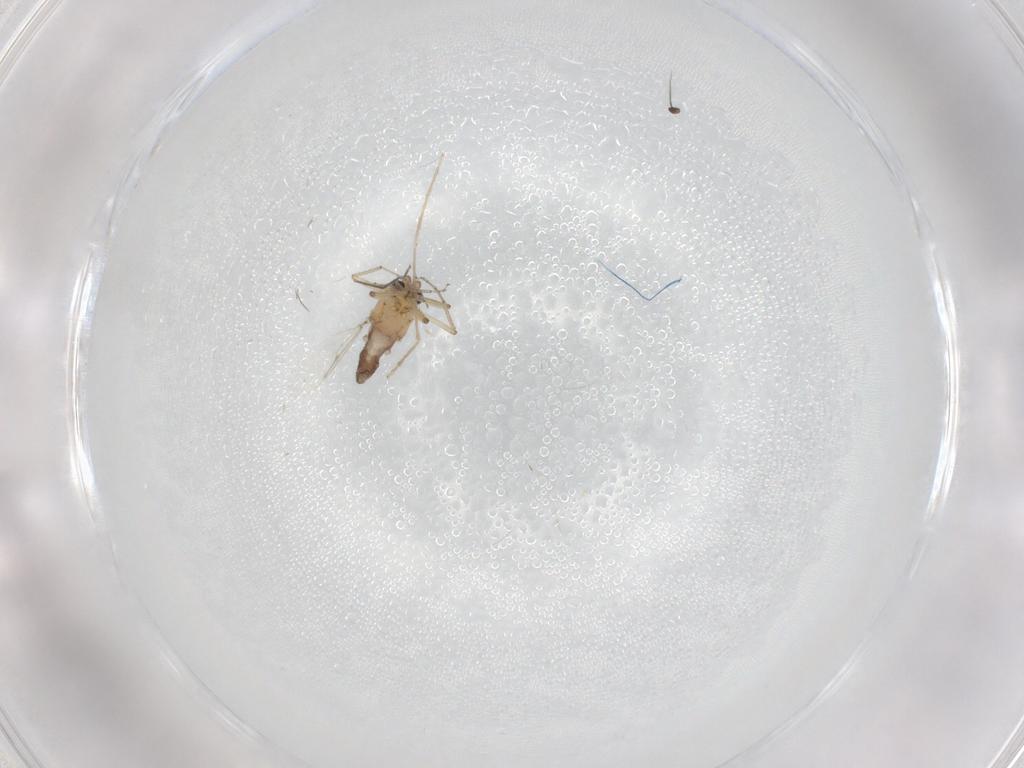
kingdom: Animalia
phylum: Arthropoda
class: Insecta
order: Diptera
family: Ceratopogonidae
